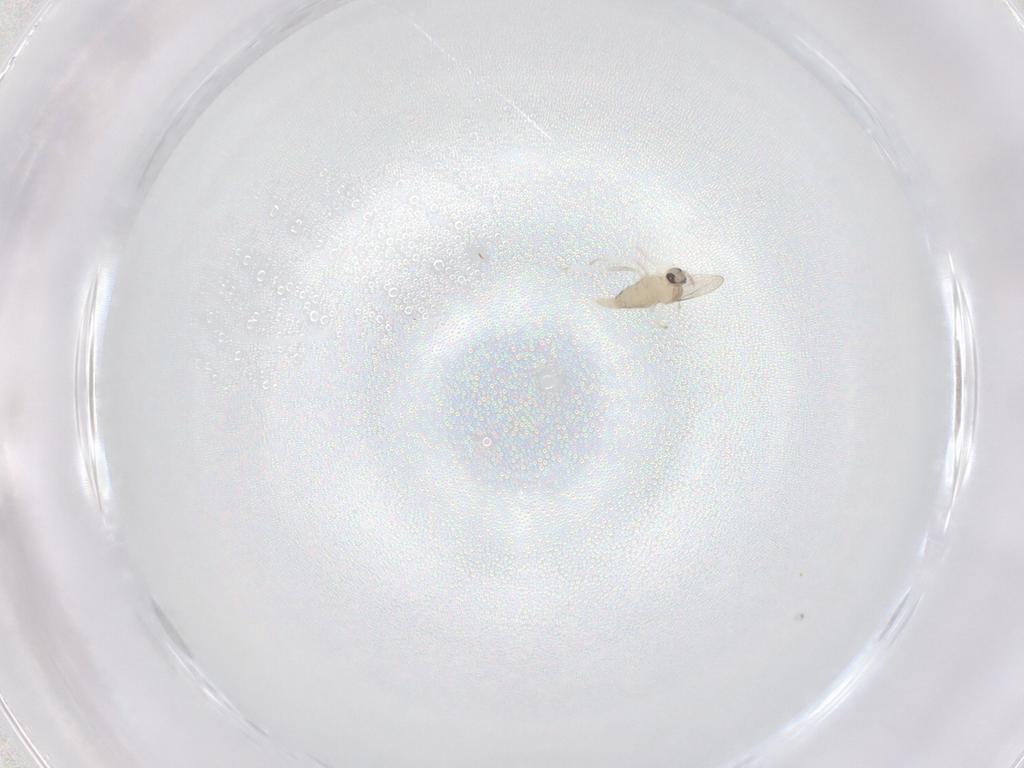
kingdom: Animalia
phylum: Arthropoda
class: Insecta
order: Diptera
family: Cecidomyiidae
